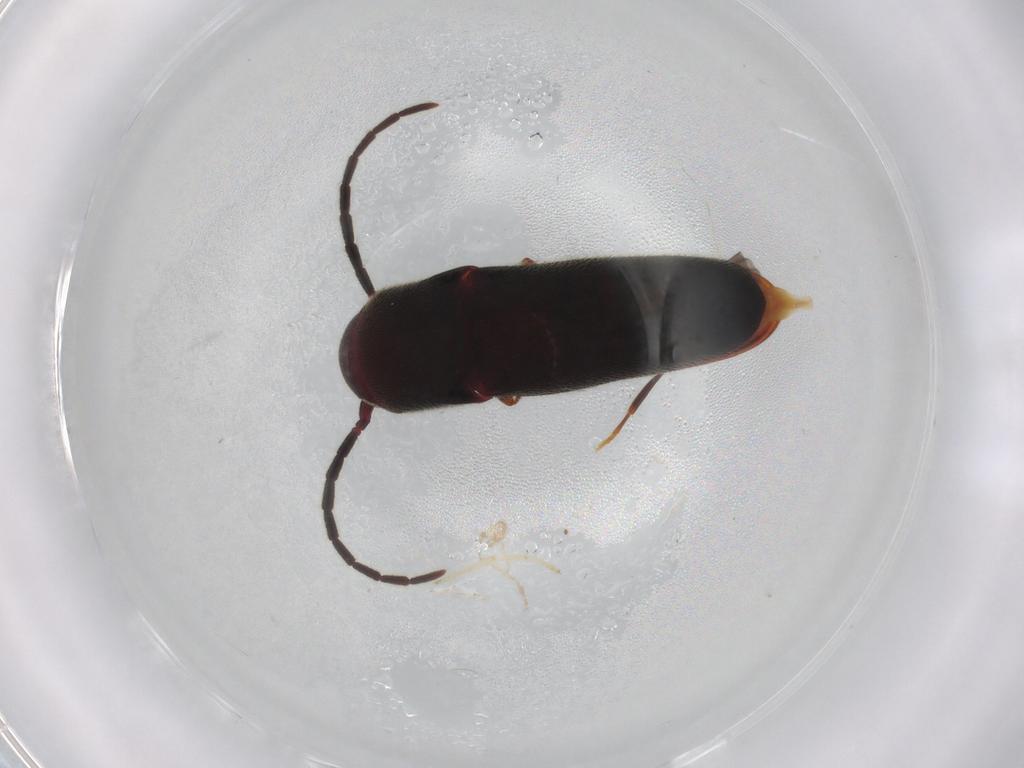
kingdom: Animalia
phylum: Arthropoda
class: Insecta
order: Coleoptera
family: Eucnemidae
